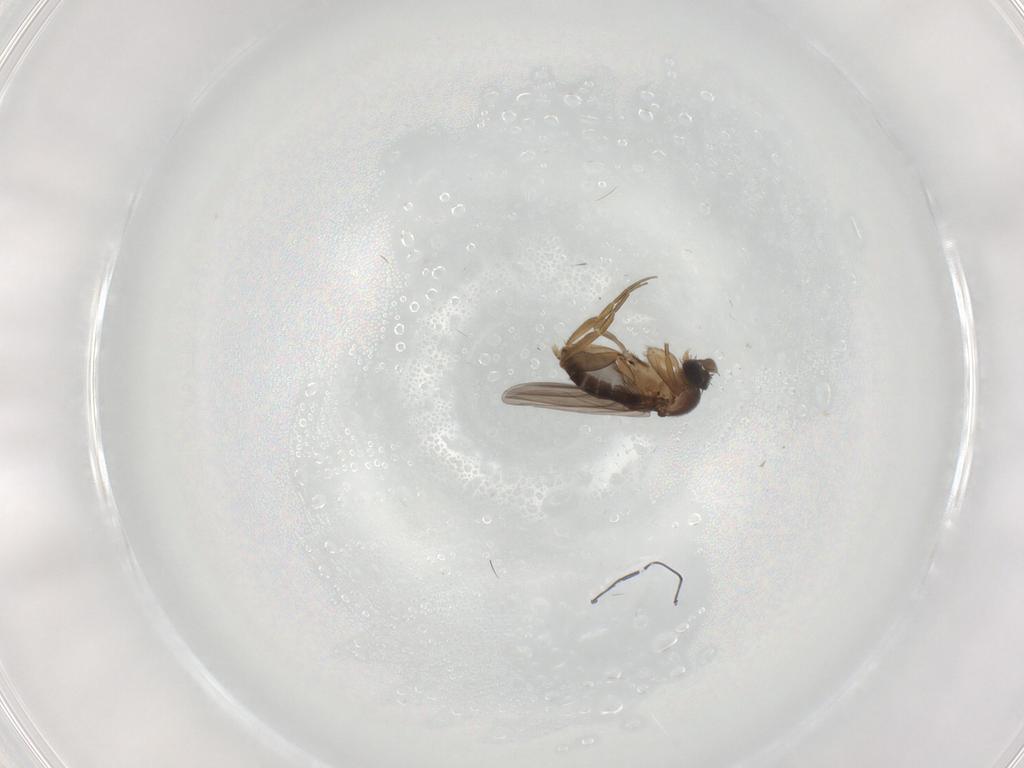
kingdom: Animalia
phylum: Arthropoda
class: Insecta
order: Diptera
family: Phoridae
